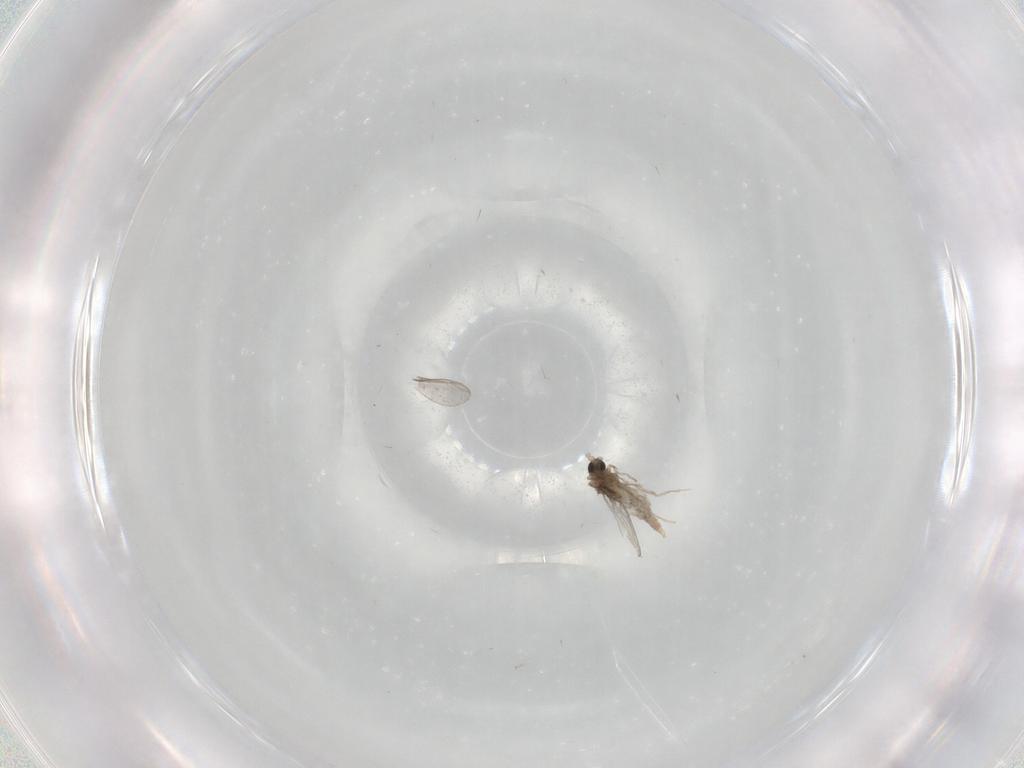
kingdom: Animalia
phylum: Arthropoda
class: Insecta
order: Diptera
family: Cecidomyiidae
